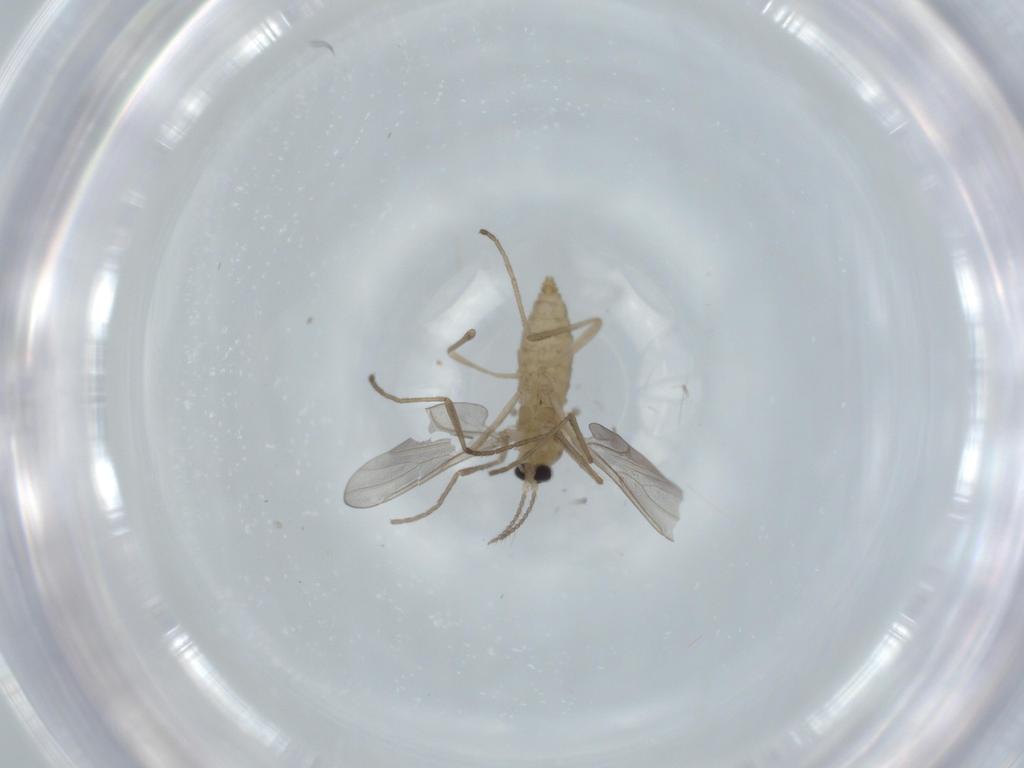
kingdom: Animalia
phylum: Arthropoda
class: Insecta
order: Diptera
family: Cecidomyiidae
